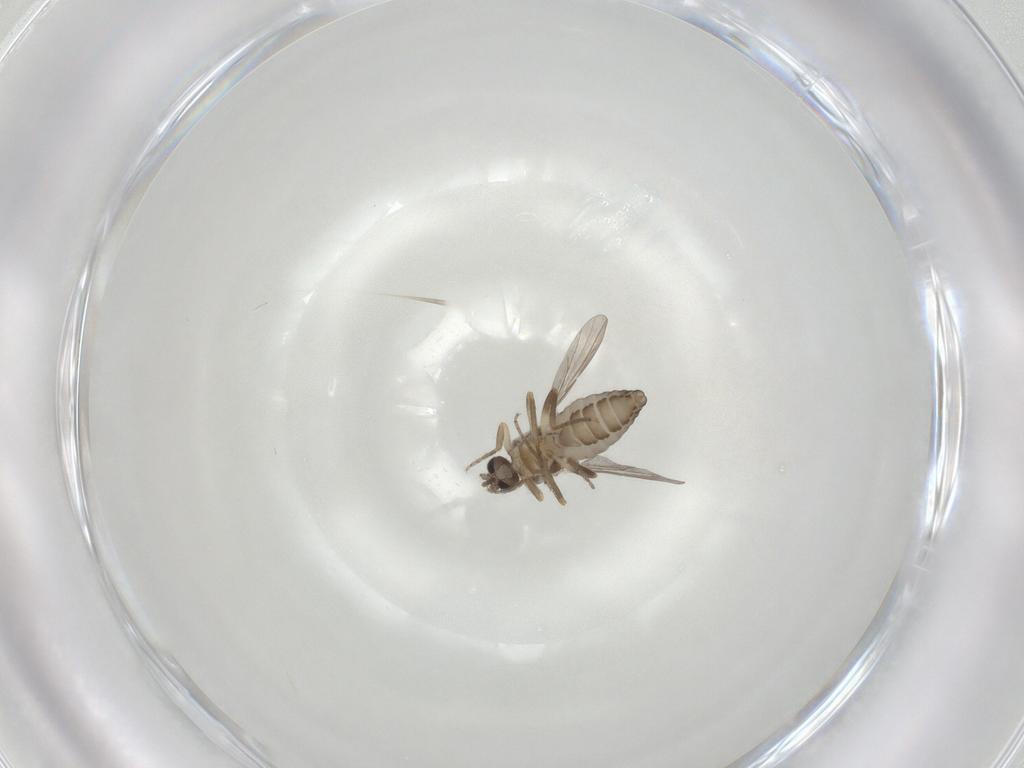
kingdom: Animalia
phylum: Arthropoda
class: Insecta
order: Diptera
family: Ceratopogonidae
